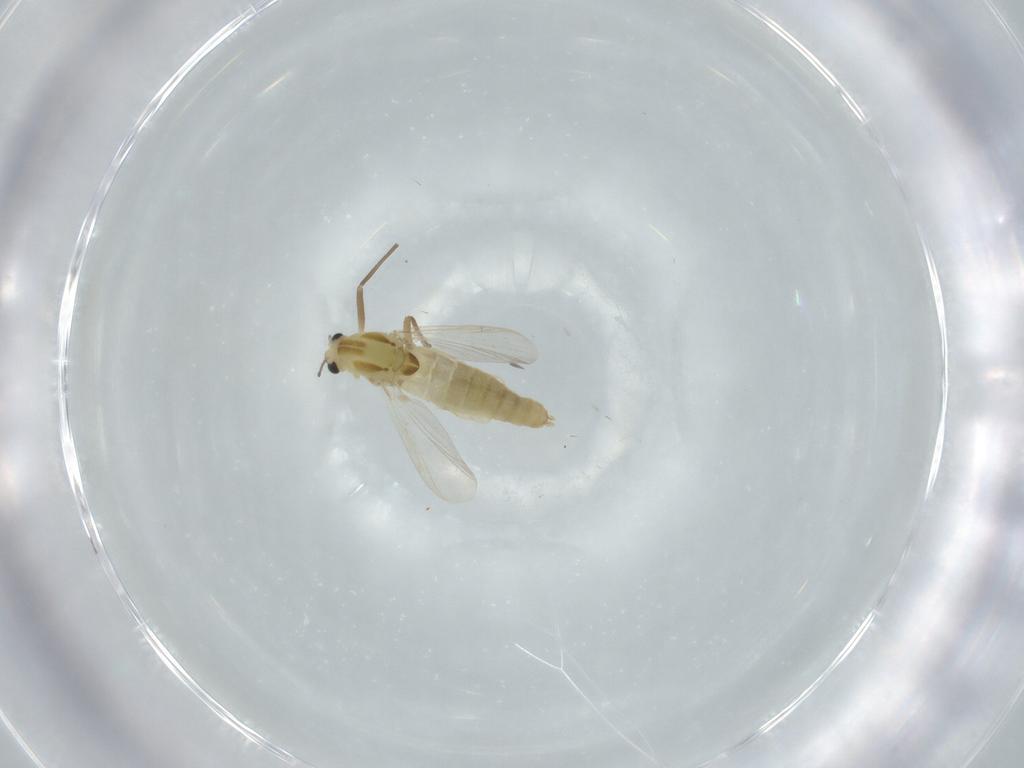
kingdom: Animalia
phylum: Arthropoda
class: Insecta
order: Diptera
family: Chironomidae
